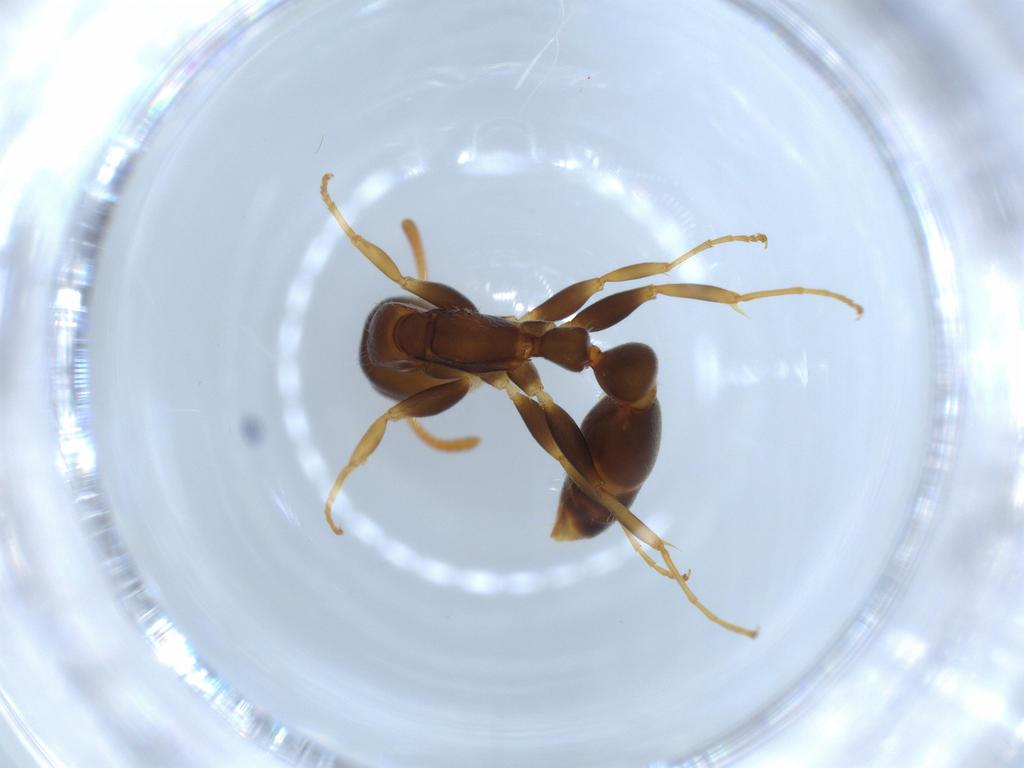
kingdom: Animalia
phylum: Arthropoda
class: Insecta
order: Hymenoptera
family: Formicidae
